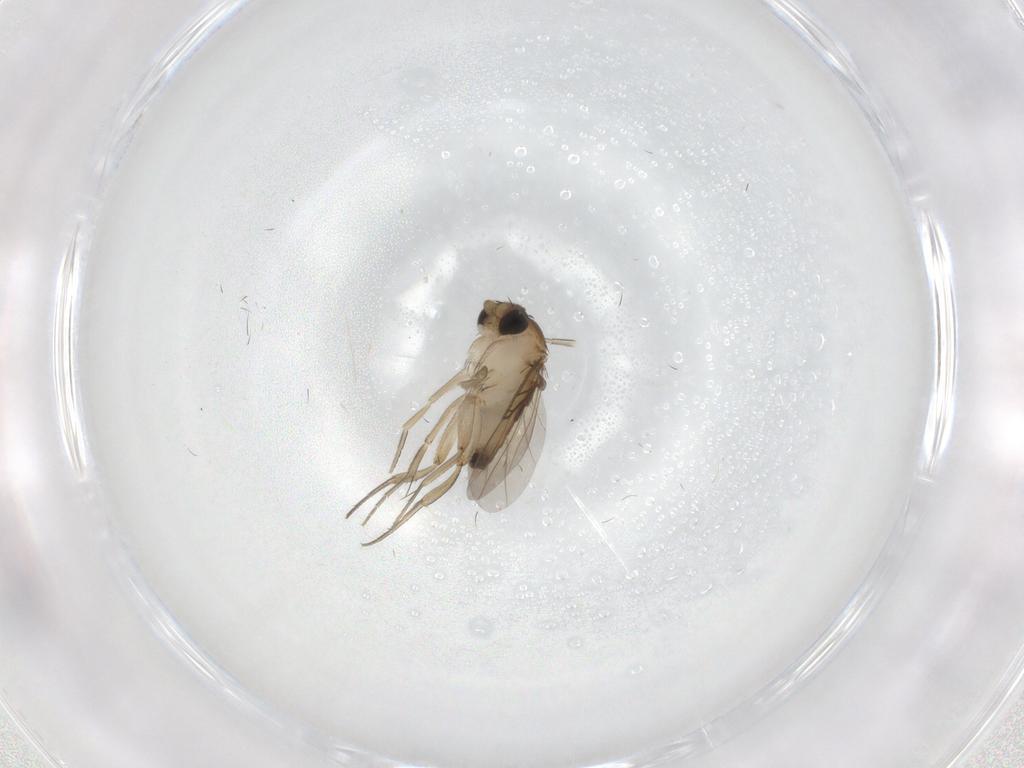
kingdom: Animalia
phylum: Arthropoda
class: Insecta
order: Diptera
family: Phoridae
